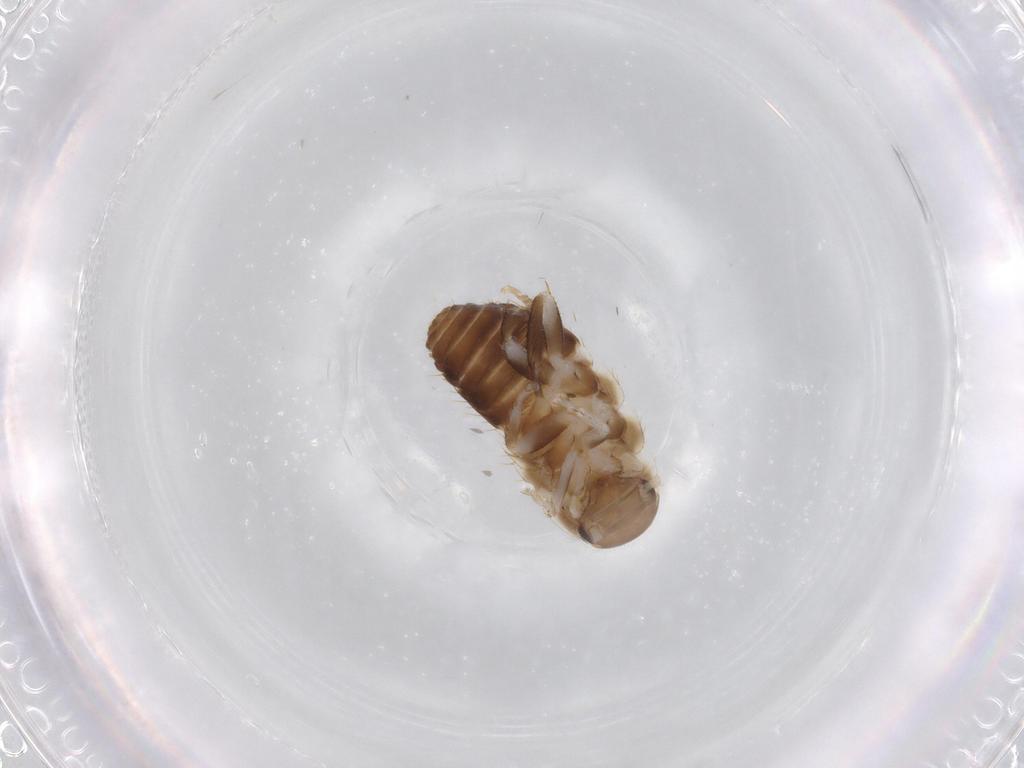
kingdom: Animalia
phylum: Arthropoda
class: Insecta
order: Blattodea
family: Ectobiidae
